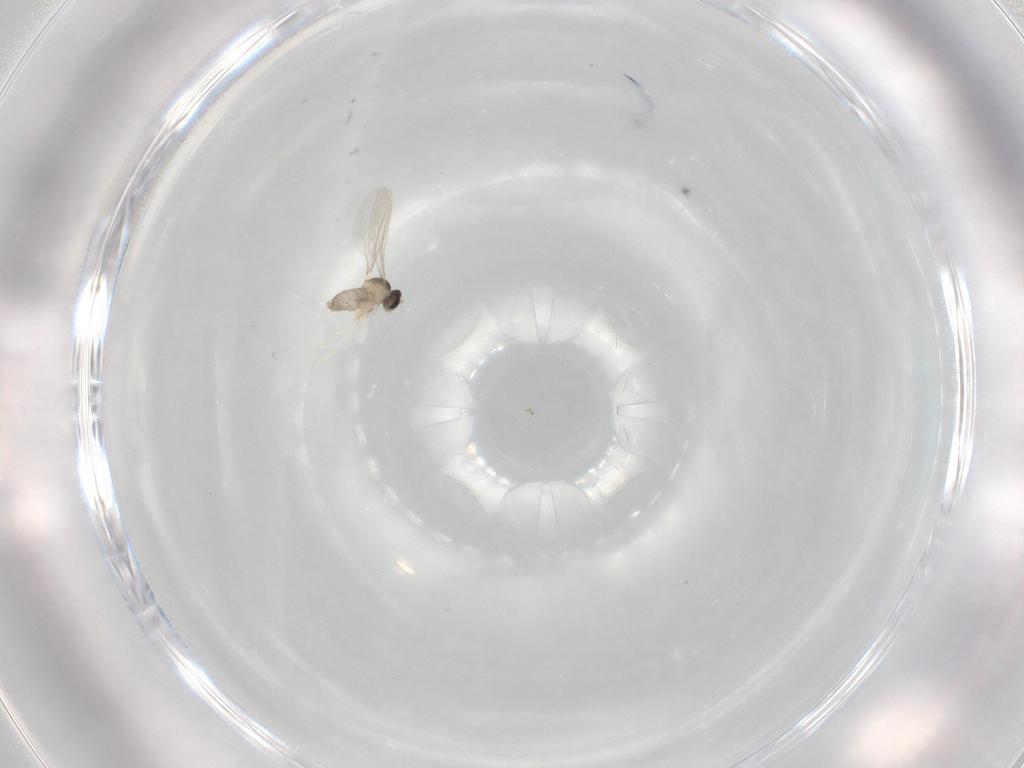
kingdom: Animalia
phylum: Arthropoda
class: Insecta
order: Diptera
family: Cecidomyiidae
